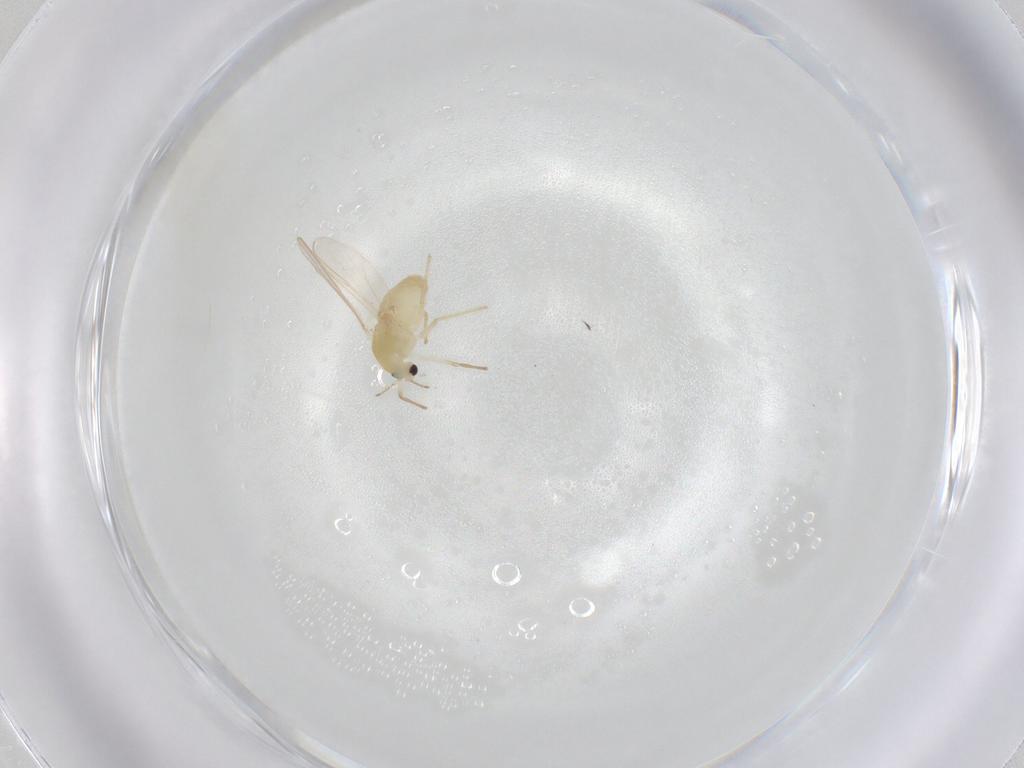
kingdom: Animalia
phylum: Arthropoda
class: Insecta
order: Diptera
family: Chironomidae
